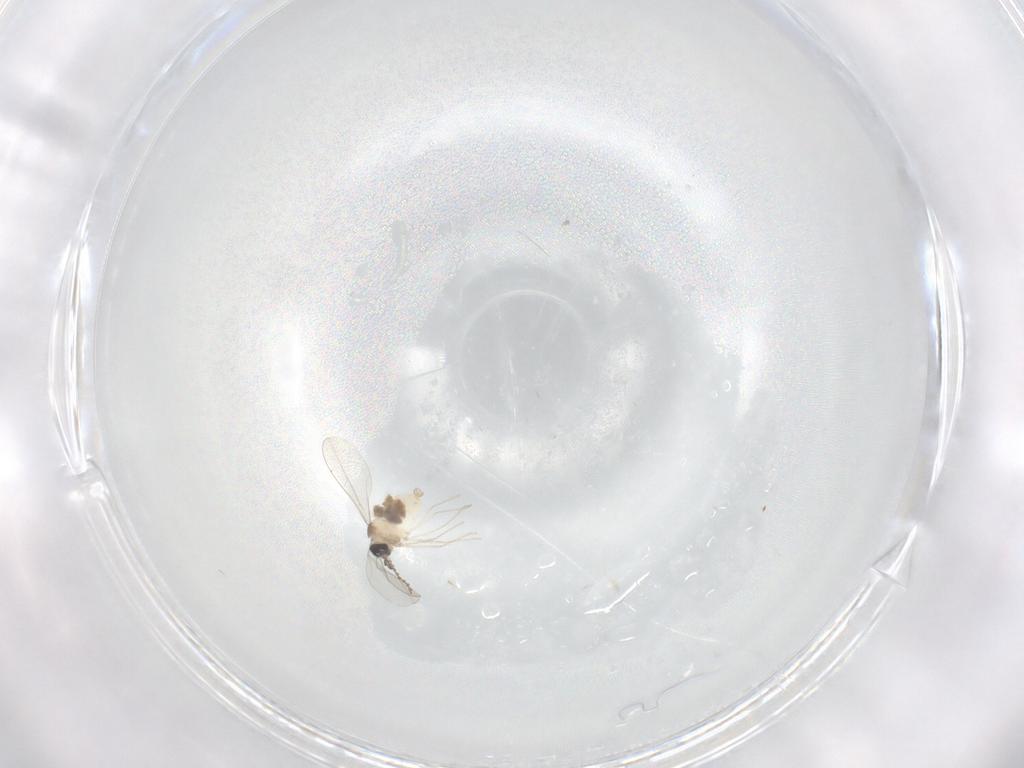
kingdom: Animalia
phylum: Arthropoda
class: Insecta
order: Diptera
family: Cecidomyiidae
